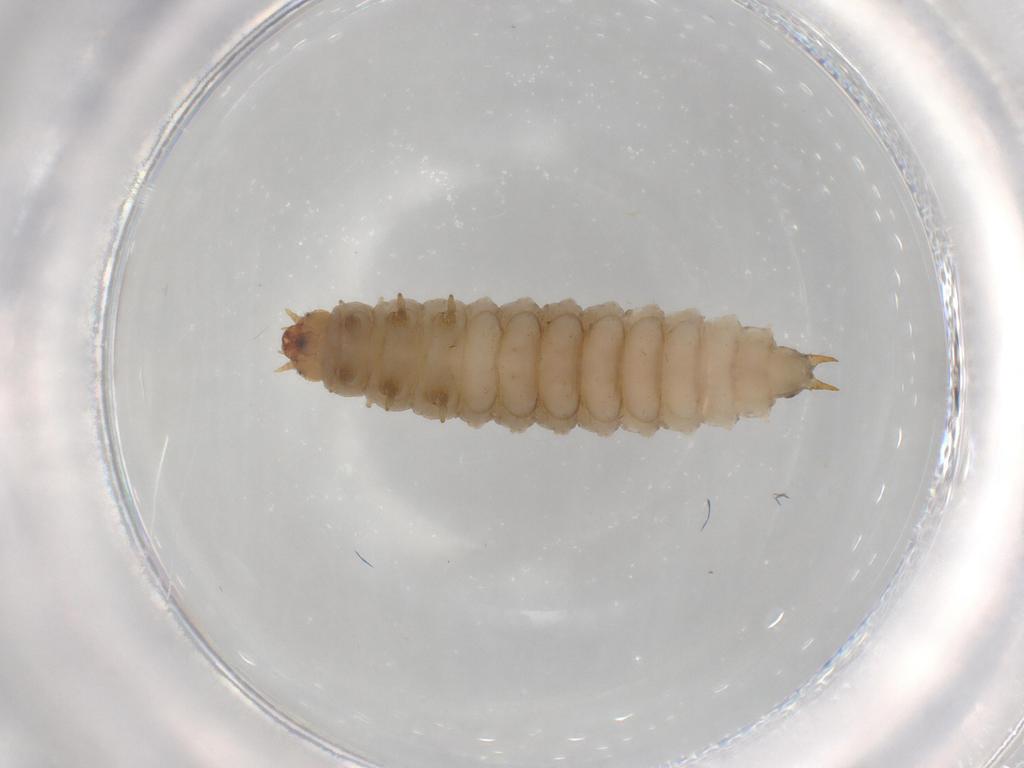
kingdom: Animalia
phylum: Arthropoda
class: Insecta
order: Coleoptera
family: Nitidulidae
